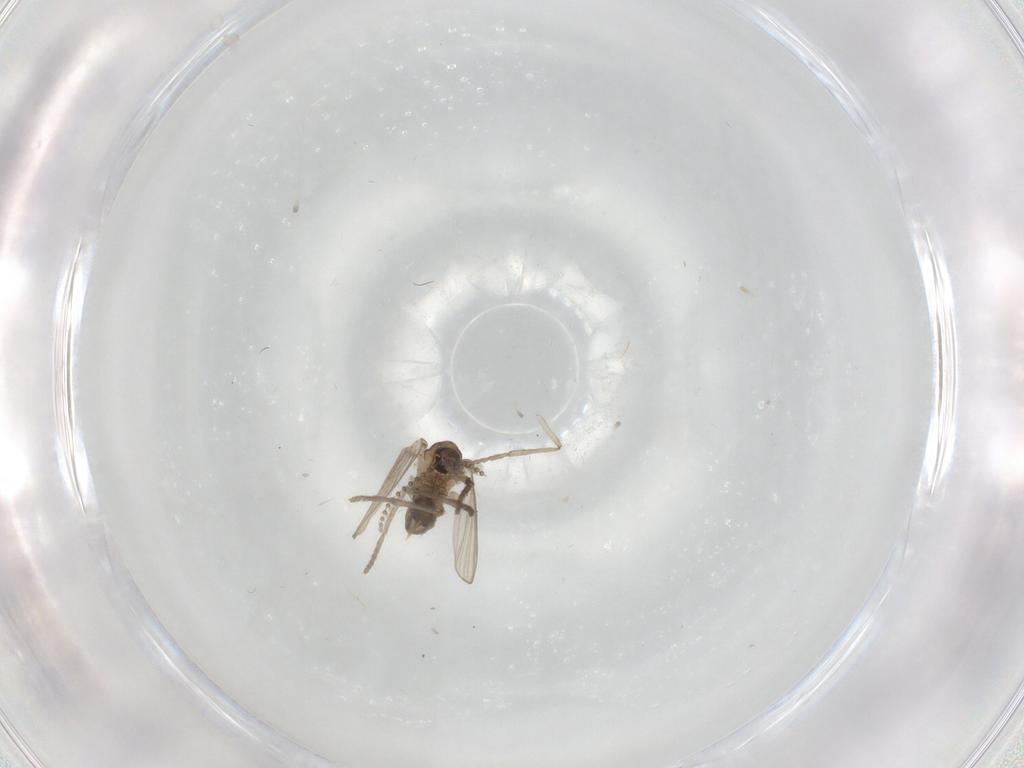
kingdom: Animalia
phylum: Arthropoda
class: Insecta
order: Diptera
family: Psychodidae
